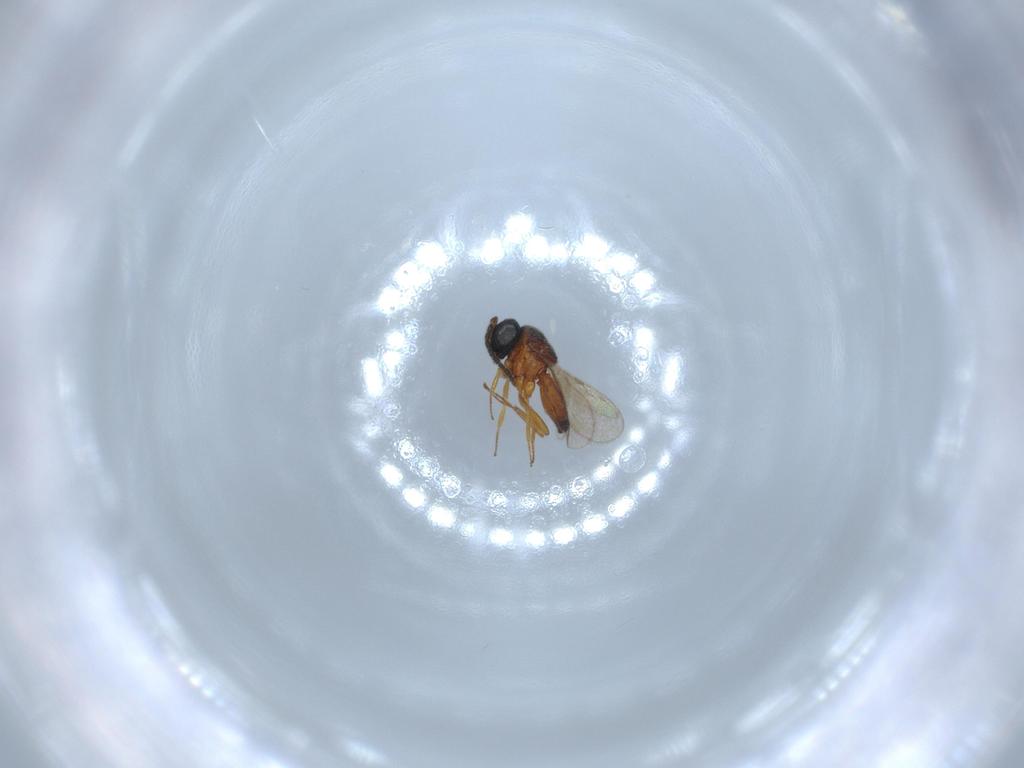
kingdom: Animalia
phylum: Arthropoda
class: Insecta
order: Hymenoptera
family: Scelionidae
